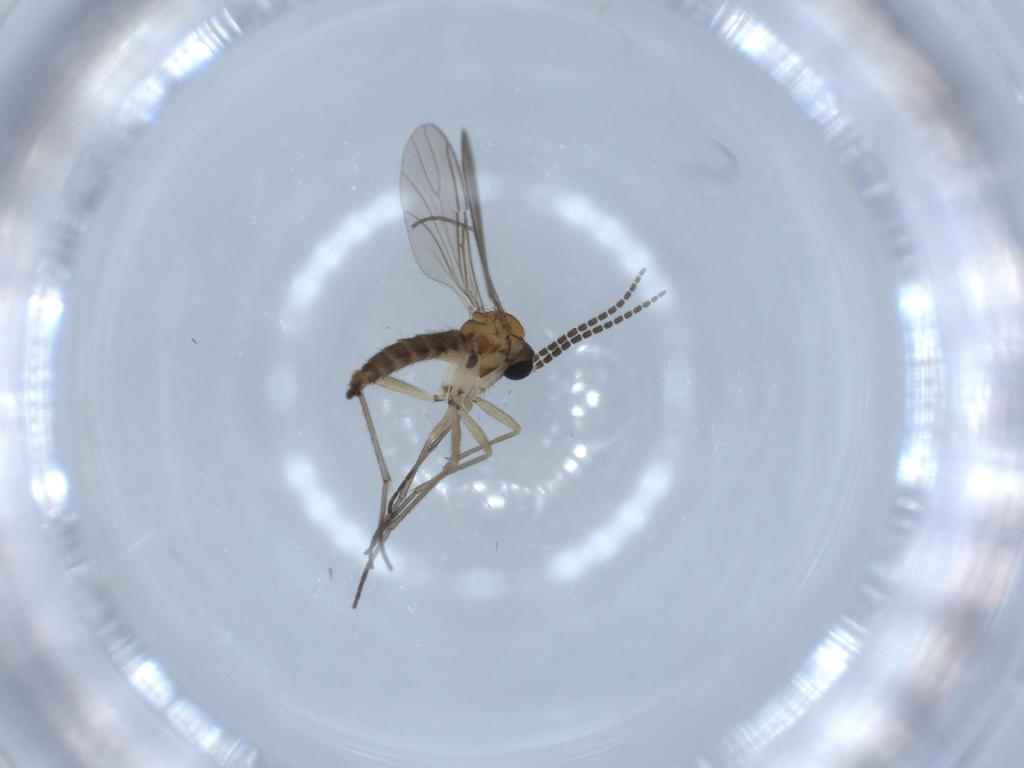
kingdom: Animalia
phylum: Arthropoda
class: Insecta
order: Diptera
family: Sciaridae
